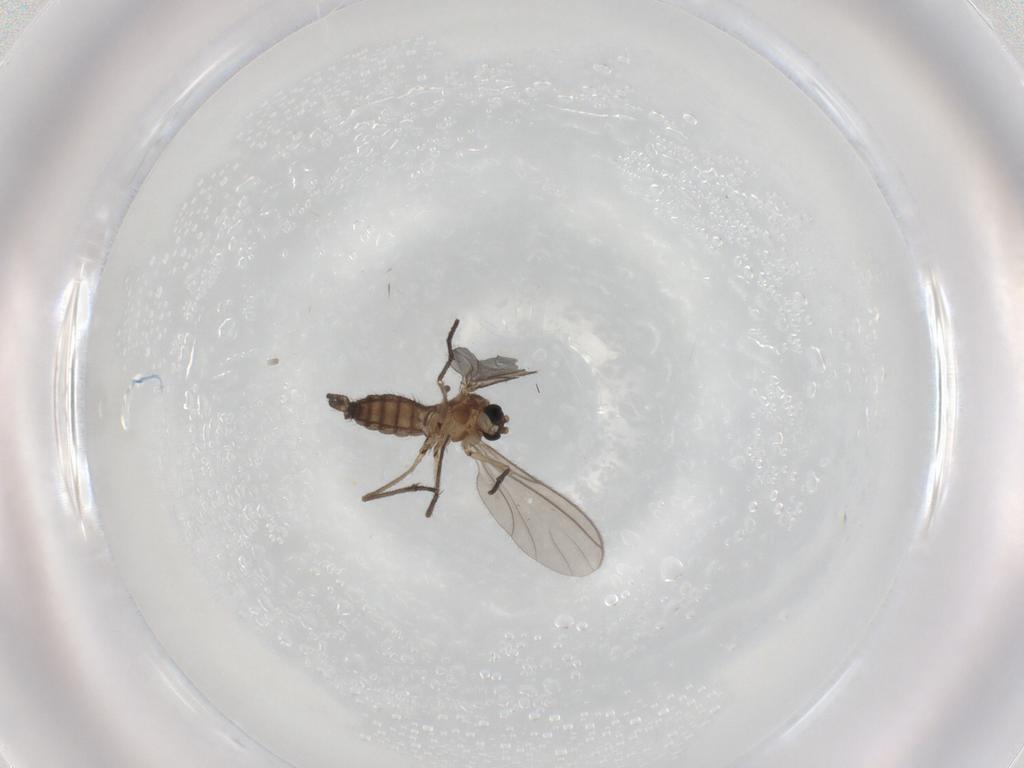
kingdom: Animalia
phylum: Arthropoda
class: Insecta
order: Diptera
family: Sciaridae
